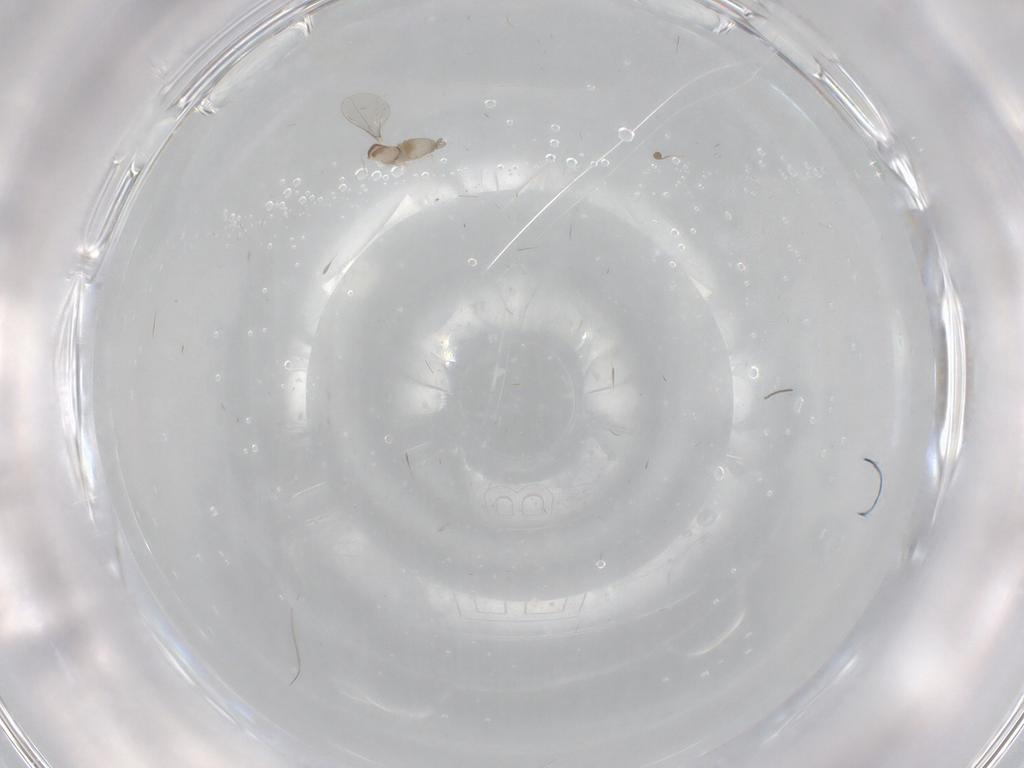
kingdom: Animalia
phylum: Arthropoda
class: Insecta
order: Diptera
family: Cecidomyiidae
